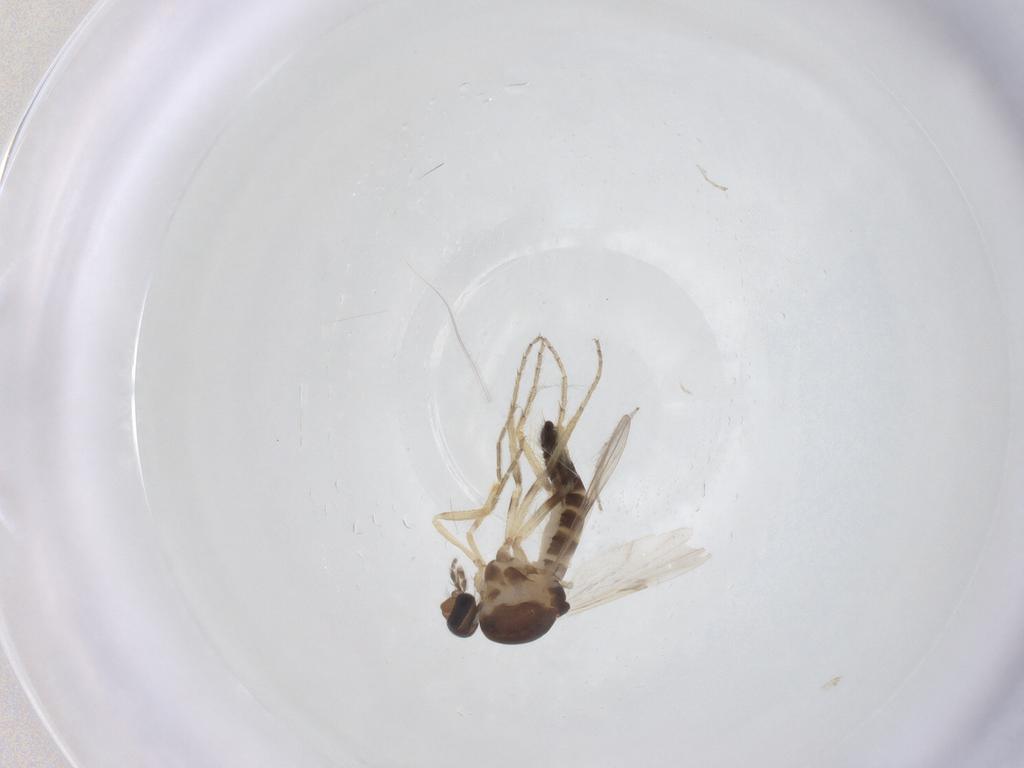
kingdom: Animalia
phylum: Arthropoda
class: Insecta
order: Diptera
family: Ceratopogonidae
